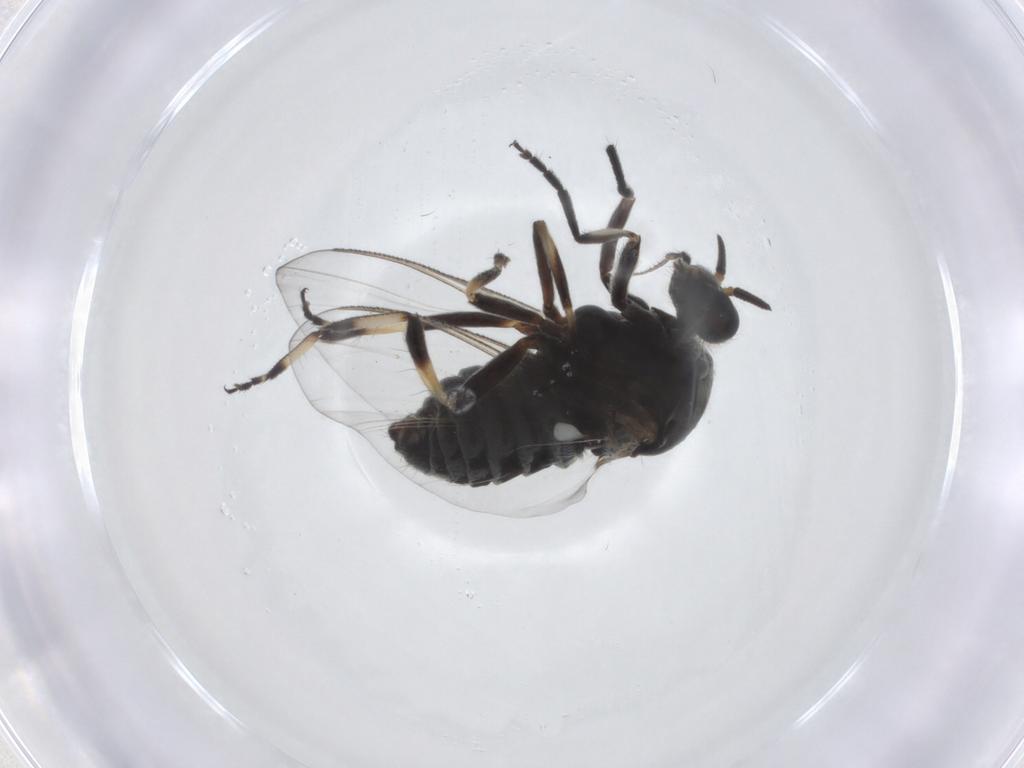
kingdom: Animalia
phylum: Arthropoda
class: Insecta
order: Diptera
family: Simuliidae
